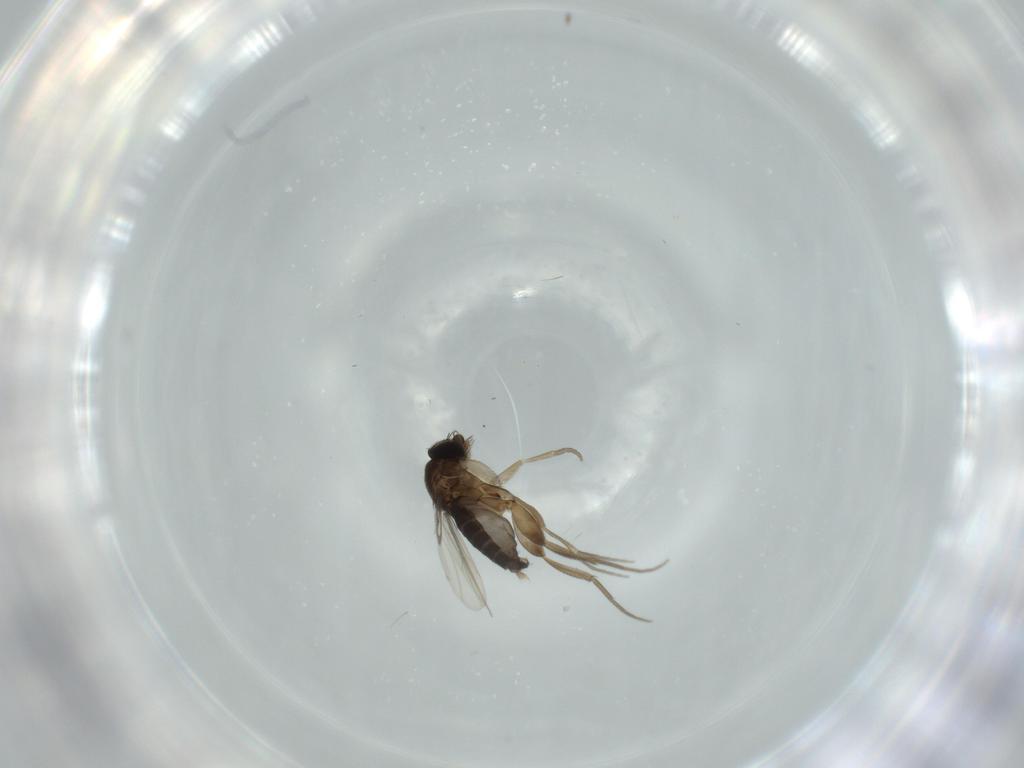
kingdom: Animalia
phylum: Arthropoda
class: Insecta
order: Diptera
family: Phoridae
